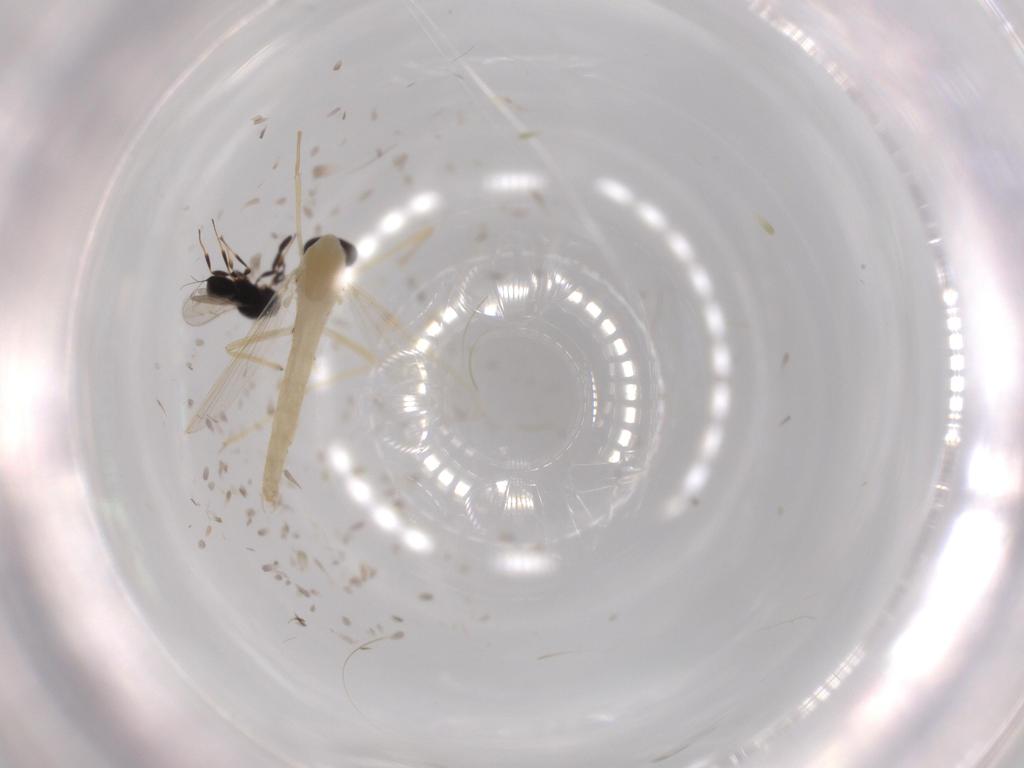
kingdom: Animalia
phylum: Arthropoda
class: Insecta
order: Diptera
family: Chironomidae
